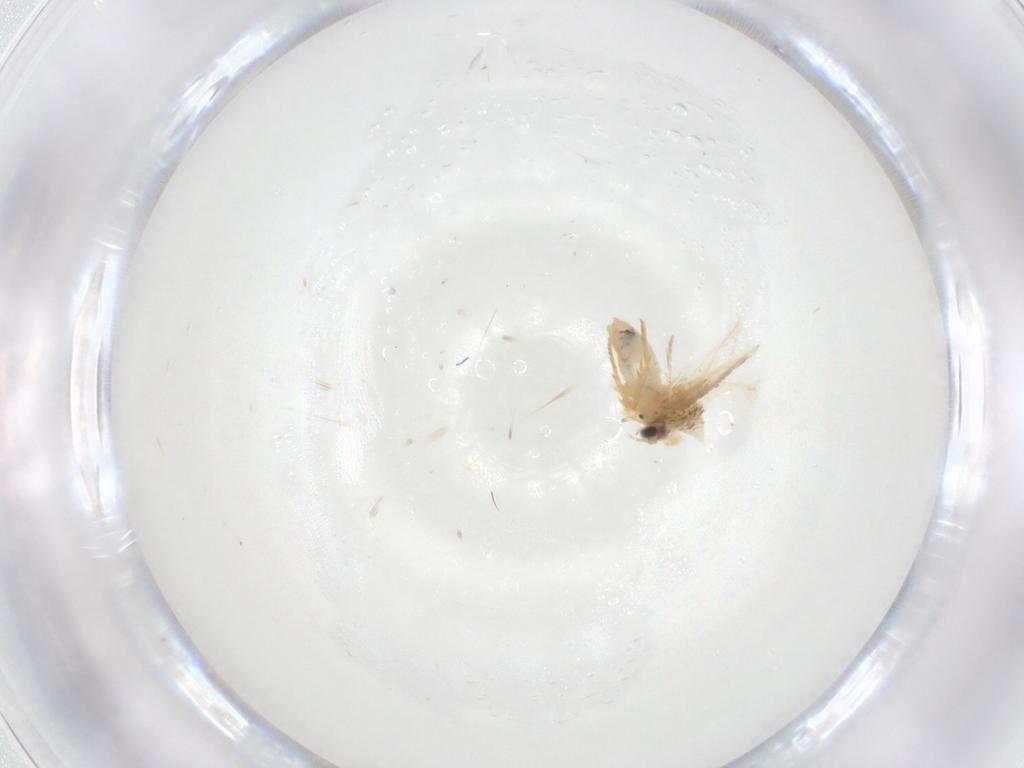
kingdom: Animalia
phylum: Arthropoda
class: Insecta
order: Lepidoptera
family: Nepticulidae
